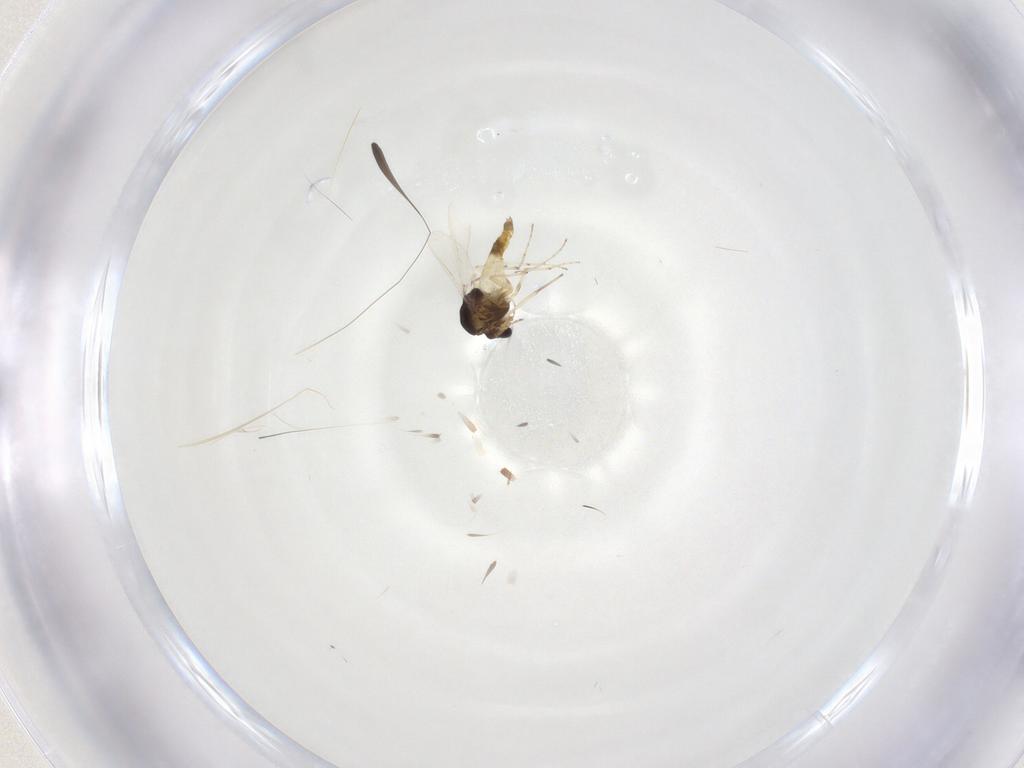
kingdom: Animalia
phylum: Arthropoda
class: Insecta
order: Diptera
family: Chironomidae
